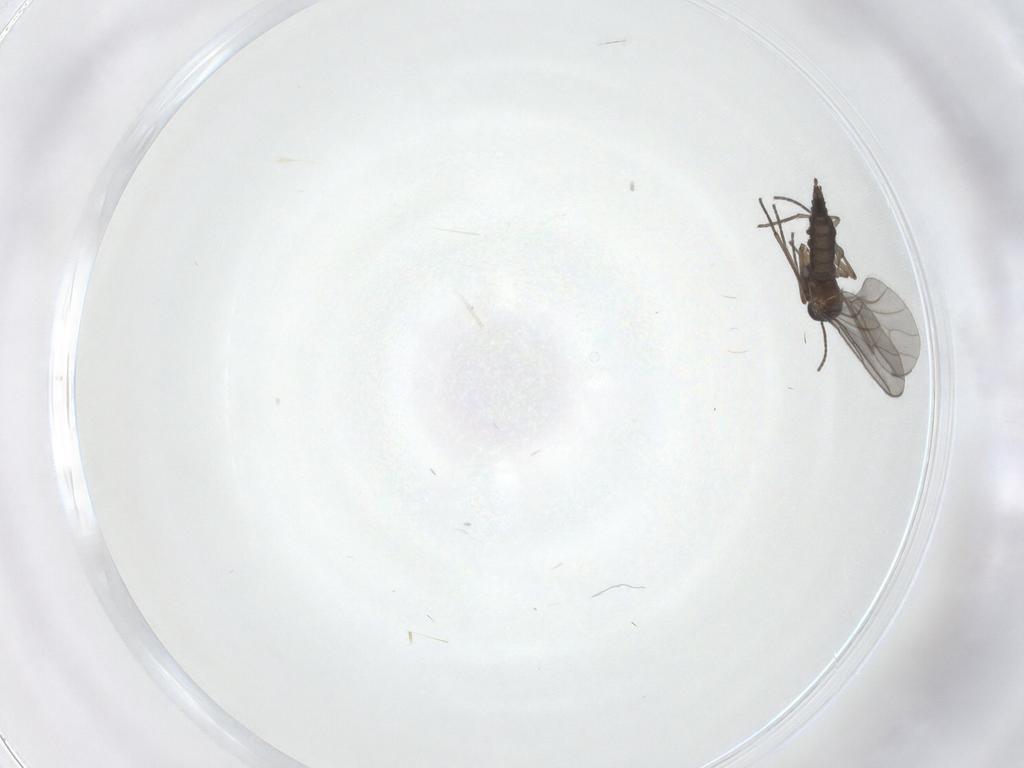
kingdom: Animalia
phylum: Arthropoda
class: Insecta
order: Diptera
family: Sciaridae
